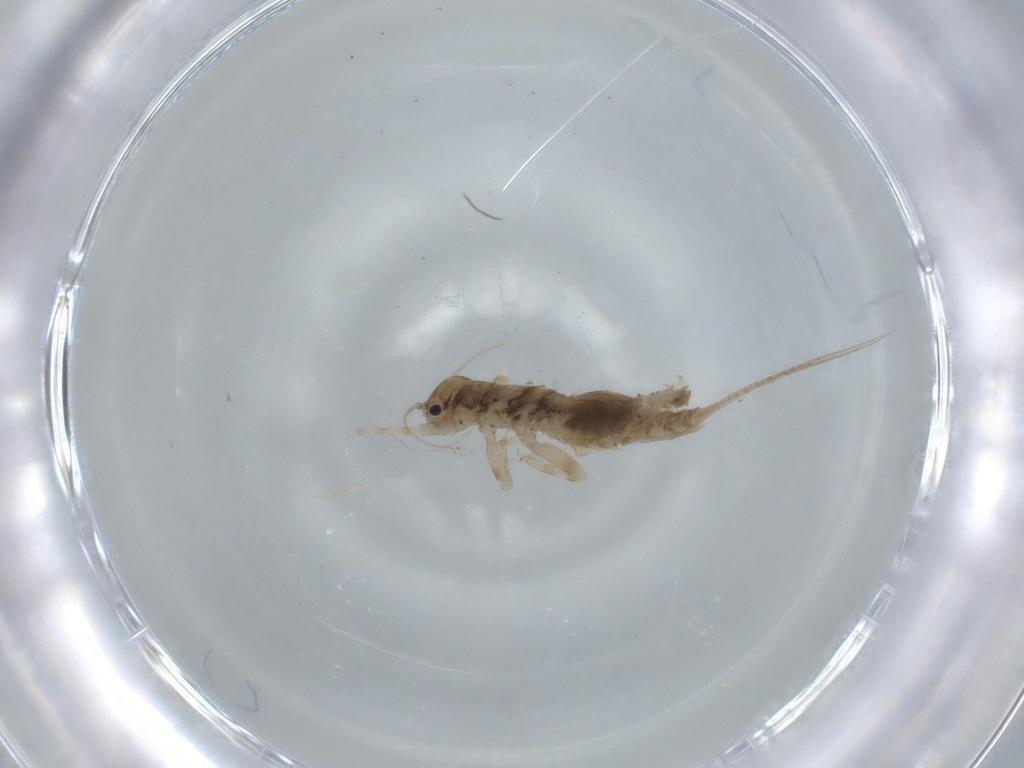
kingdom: Animalia
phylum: Arthropoda
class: Insecta
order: Ephemeroptera
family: Caenidae
